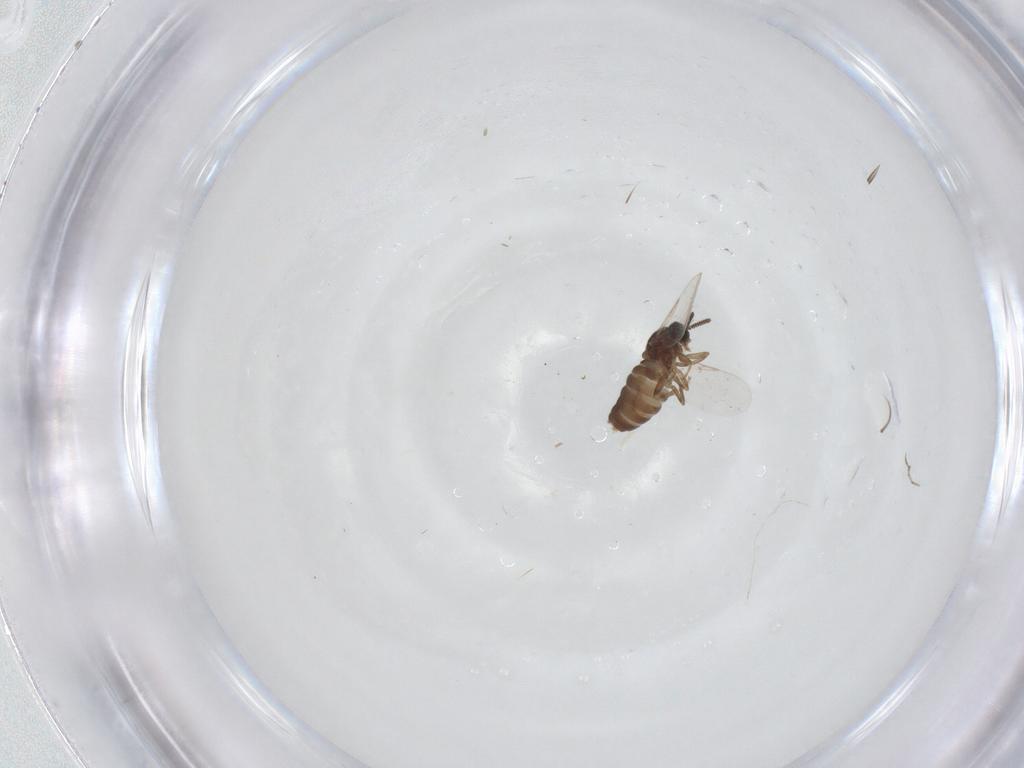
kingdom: Animalia
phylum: Arthropoda
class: Insecta
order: Diptera
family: Scatopsidae
